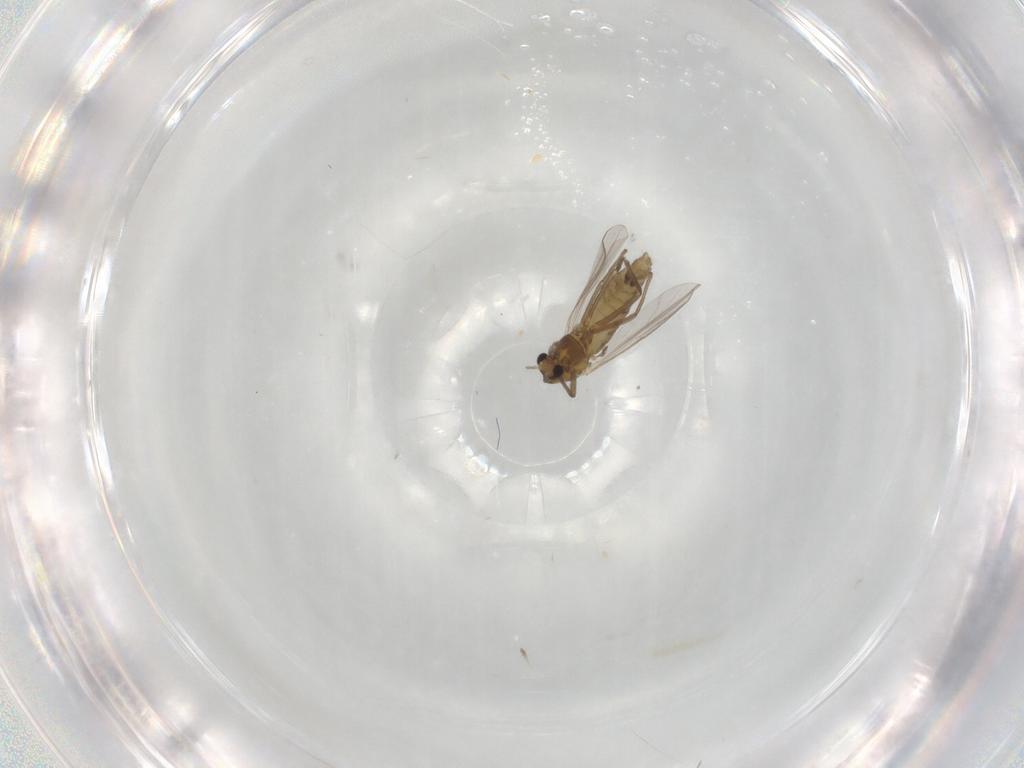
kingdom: Animalia
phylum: Arthropoda
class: Insecta
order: Diptera
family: Chironomidae
